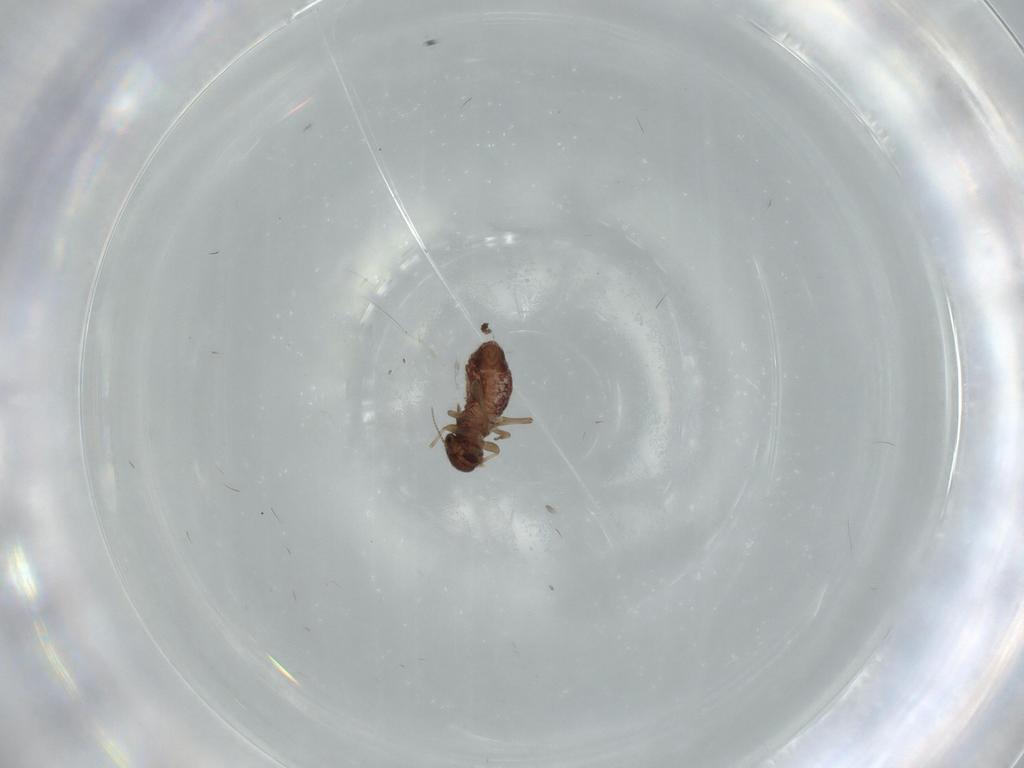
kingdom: Animalia
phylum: Arthropoda
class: Insecta
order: Psocodea
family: Archipsocidae
